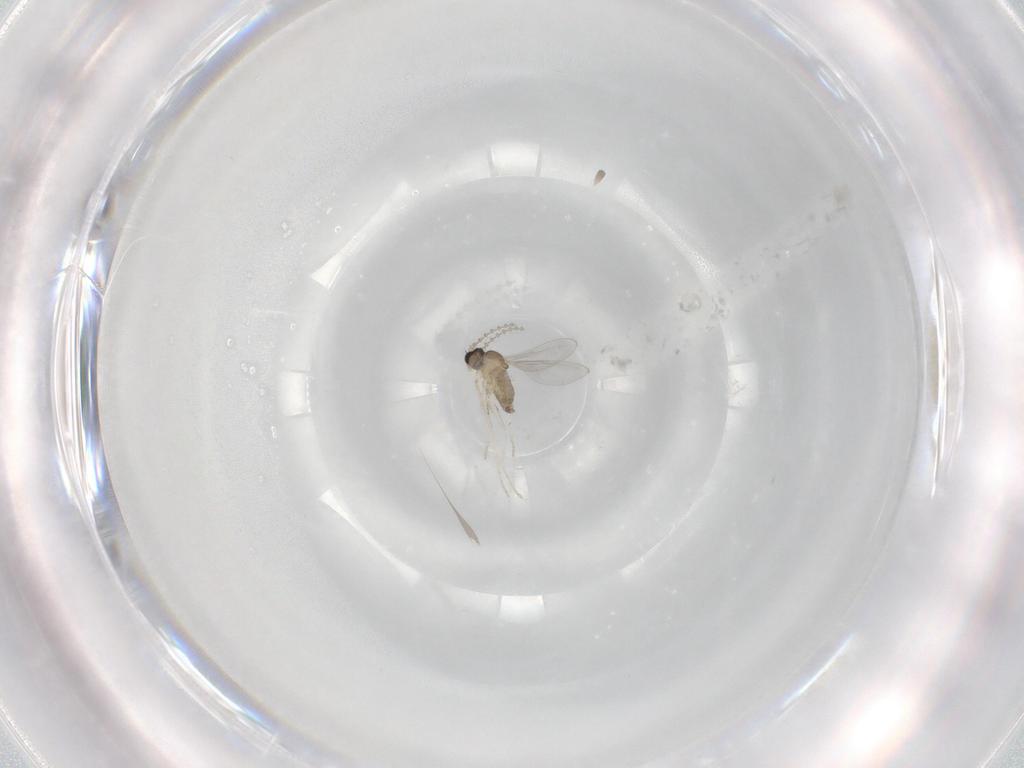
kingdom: Animalia
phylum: Arthropoda
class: Insecta
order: Diptera
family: Cecidomyiidae
